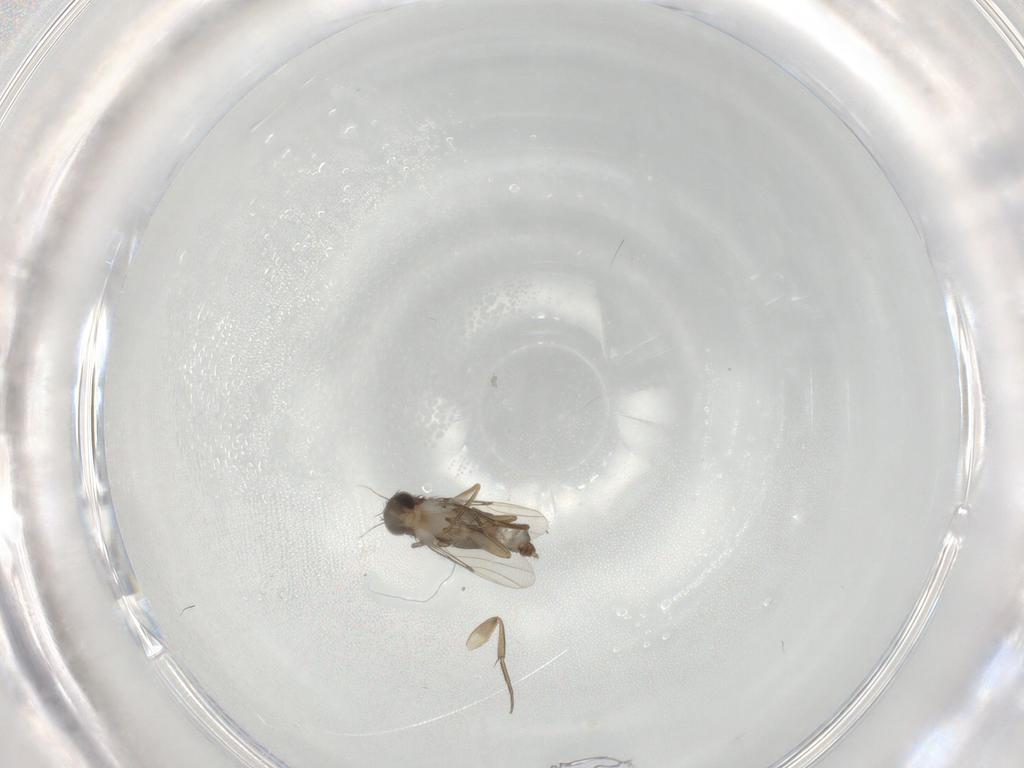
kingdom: Animalia
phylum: Arthropoda
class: Insecta
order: Diptera
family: Phoridae
